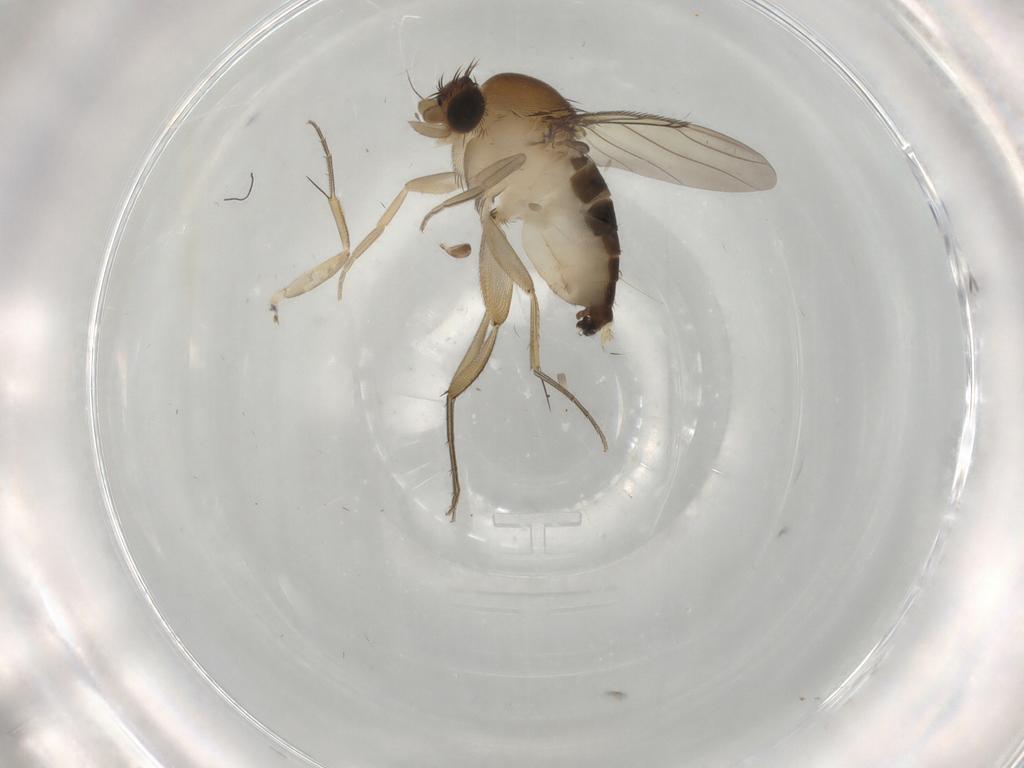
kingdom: Animalia
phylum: Arthropoda
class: Insecta
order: Diptera
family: Phoridae
